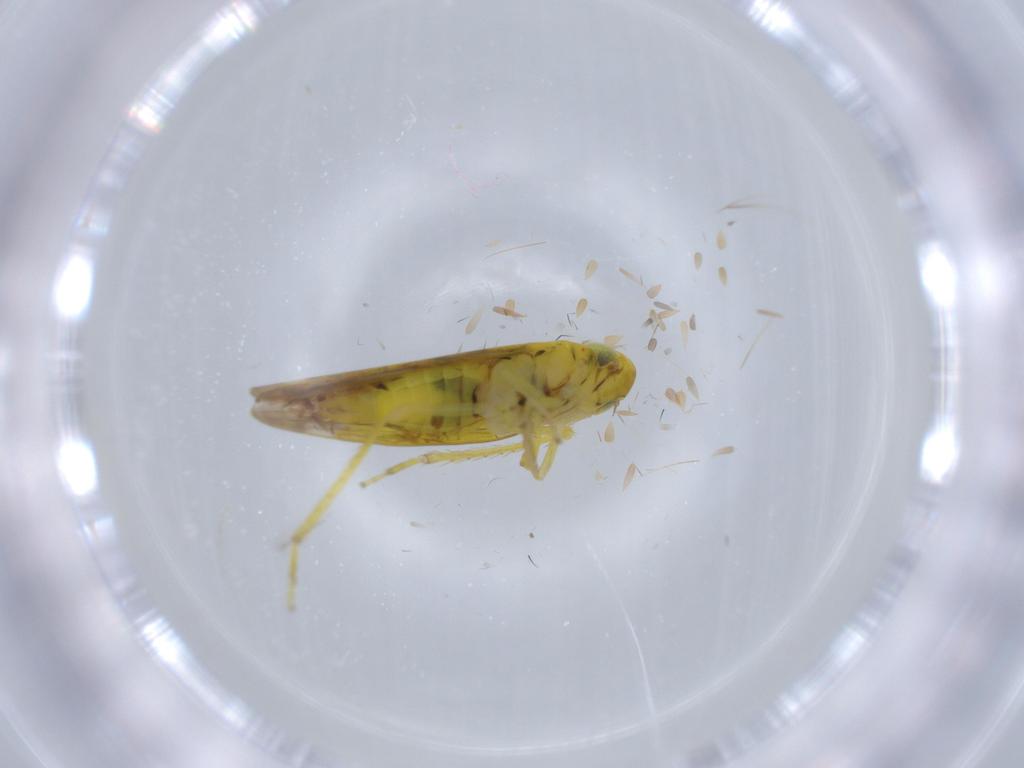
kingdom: Animalia
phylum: Arthropoda
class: Insecta
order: Hemiptera
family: Cicadellidae
